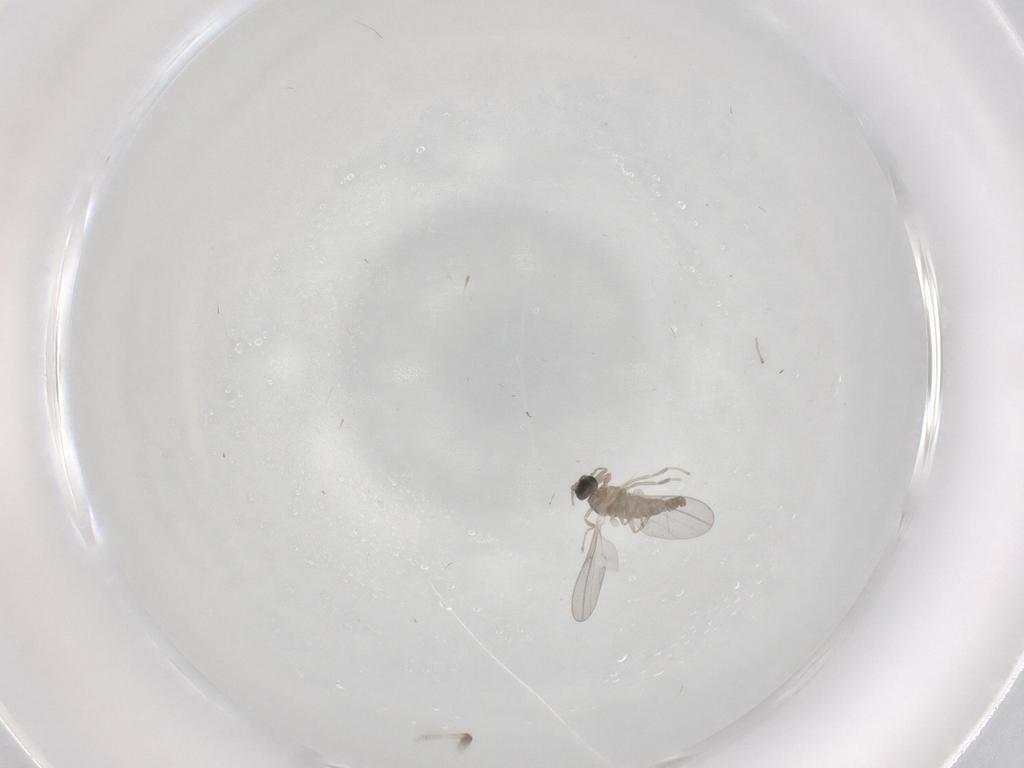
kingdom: Animalia
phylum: Arthropoda
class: Insecta
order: Diptera
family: Cecidomyiidae
